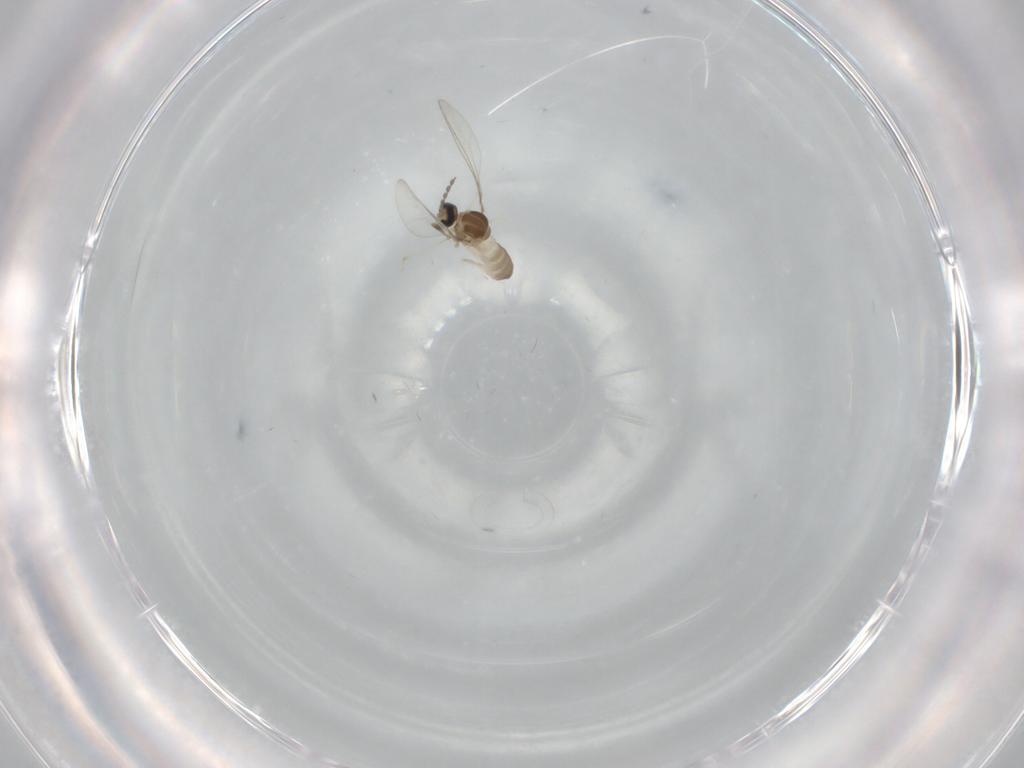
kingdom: Animalia
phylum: Arthropoda
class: Insecta
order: Diptera
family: Cecidomyiidae
